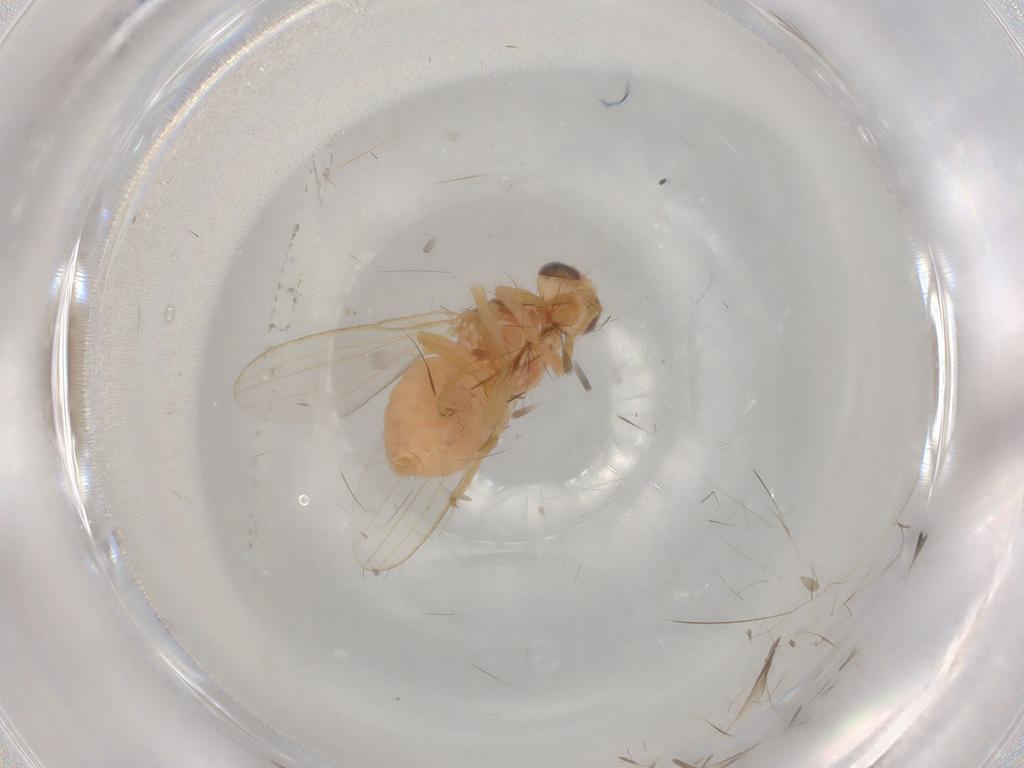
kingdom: Animalia
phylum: Arthropoda
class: Insecta
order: Diptera
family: Chyromyidae
